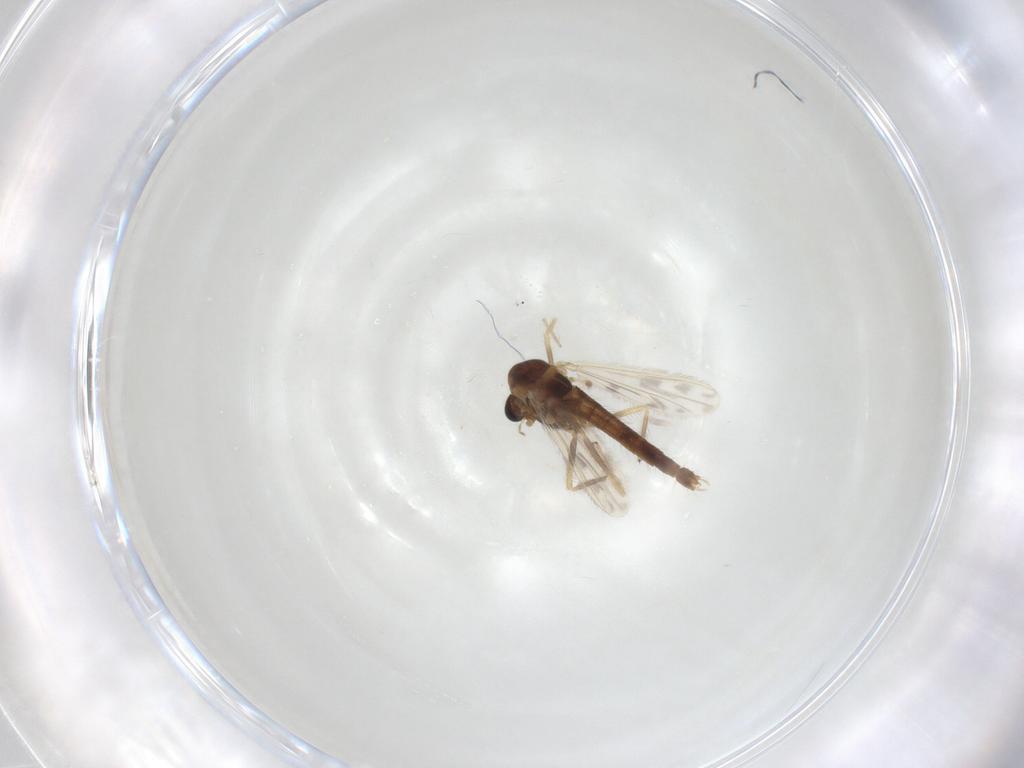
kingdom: Animalia
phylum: Arthropoda
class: Insecta
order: Diptera
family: Chironomidae
